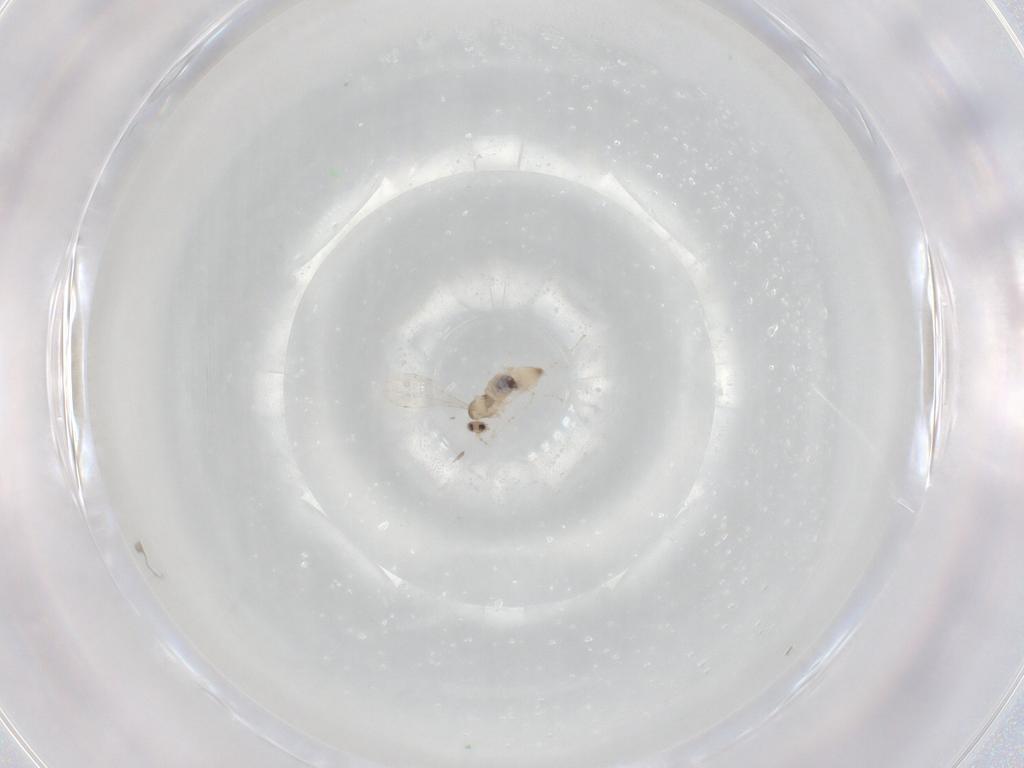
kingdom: Animalia
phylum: Arthropoda
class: Insecta
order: Diptera
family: Cecidomyiidae
